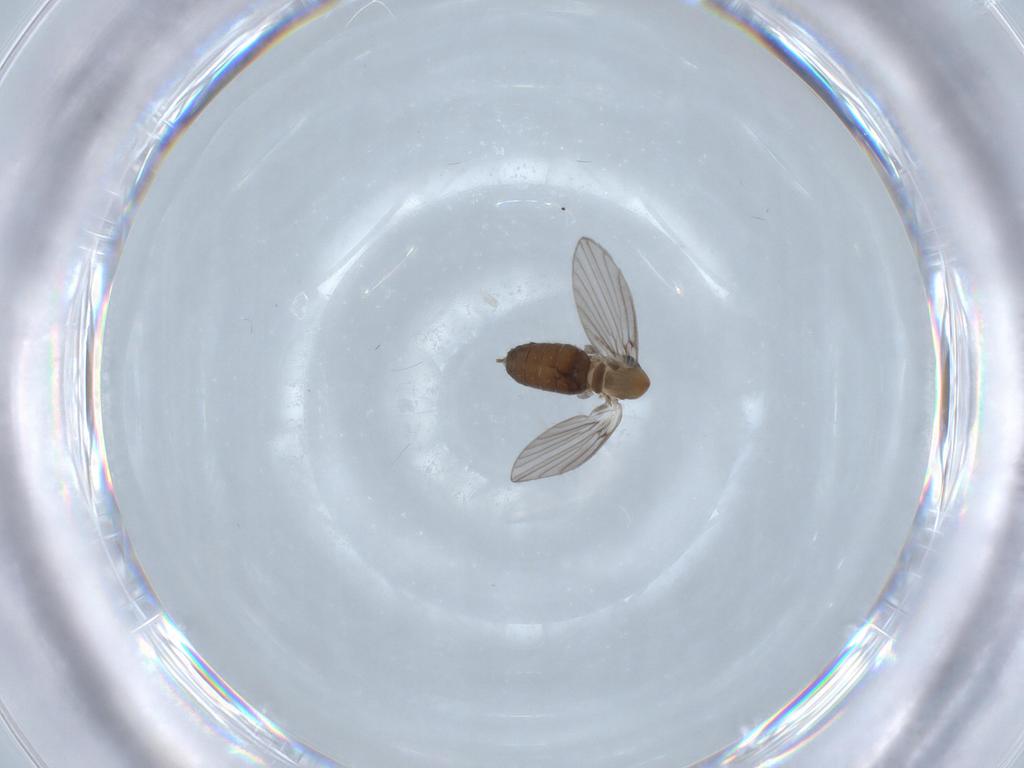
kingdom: Animalia
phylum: Arthropoda
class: Insecta
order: Diptera
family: Psychodidae
